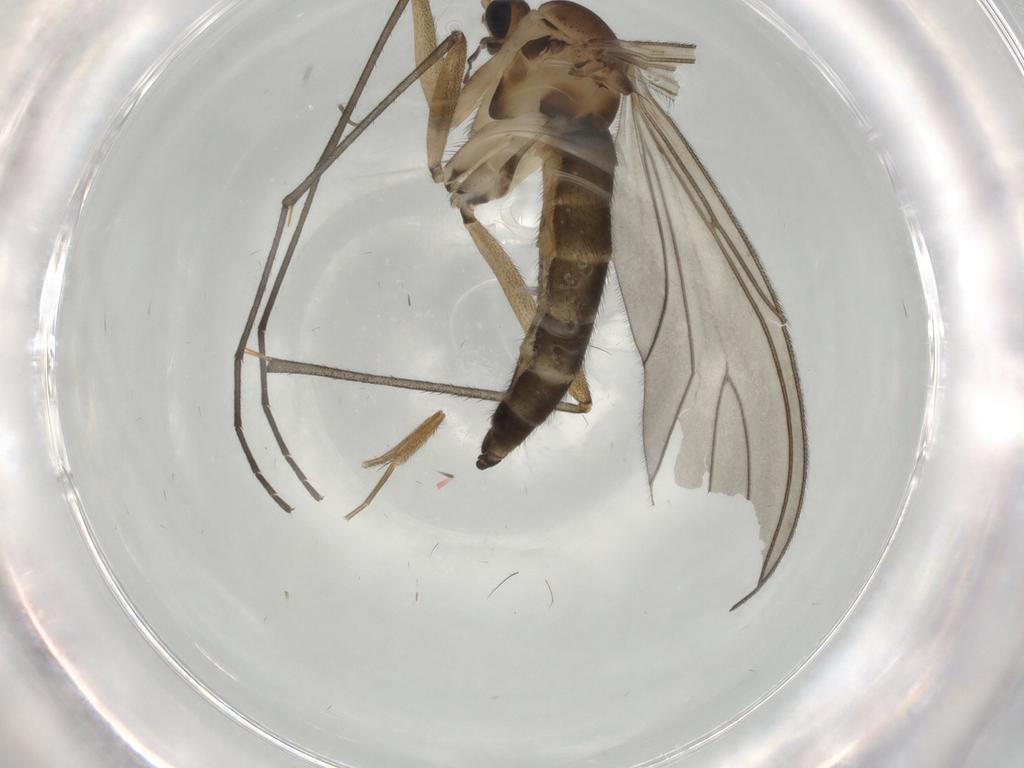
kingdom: Animalia
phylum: Arthropoda
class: Insecta
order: Diptera
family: Sciaridae
